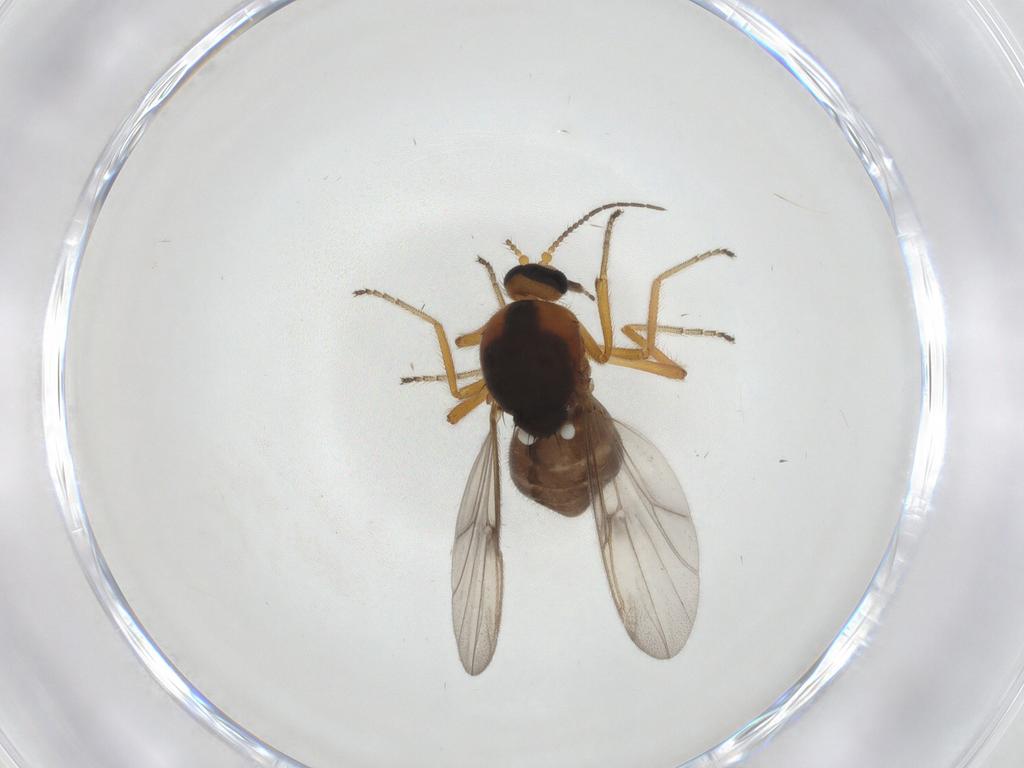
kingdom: Animalia
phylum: Arthropoda
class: Insecta
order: Diptera
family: Ceratopogonidae
